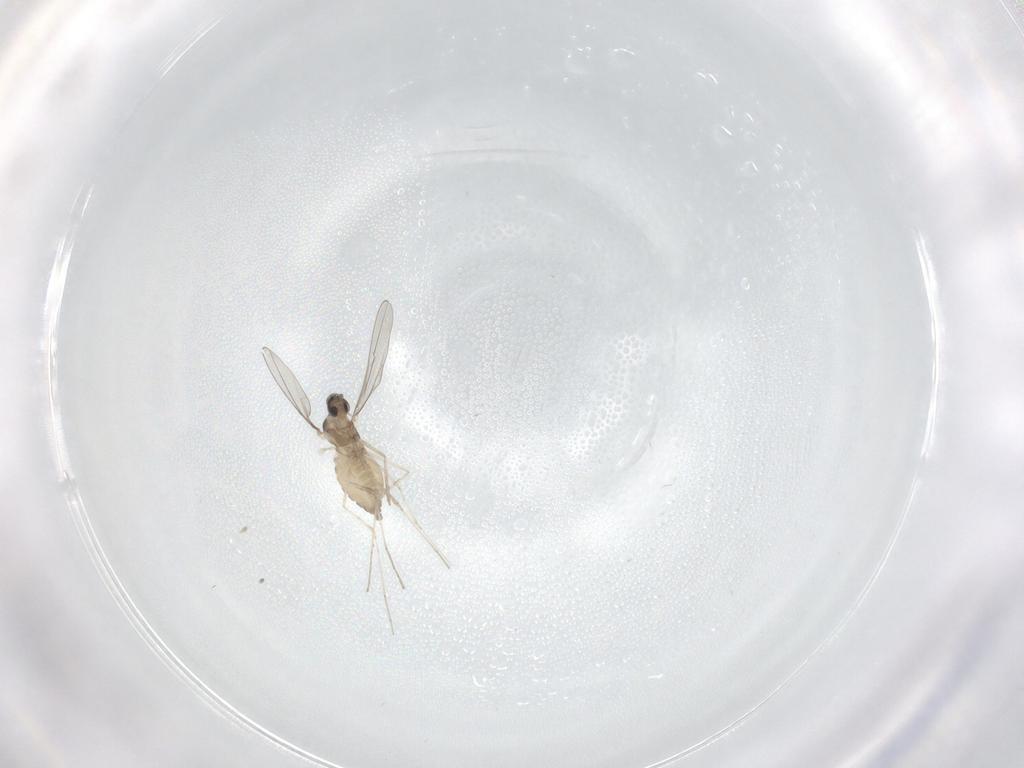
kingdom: Animalia
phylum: Arthropoda
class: Insecta
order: Diptera
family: Cecidomyiidae
